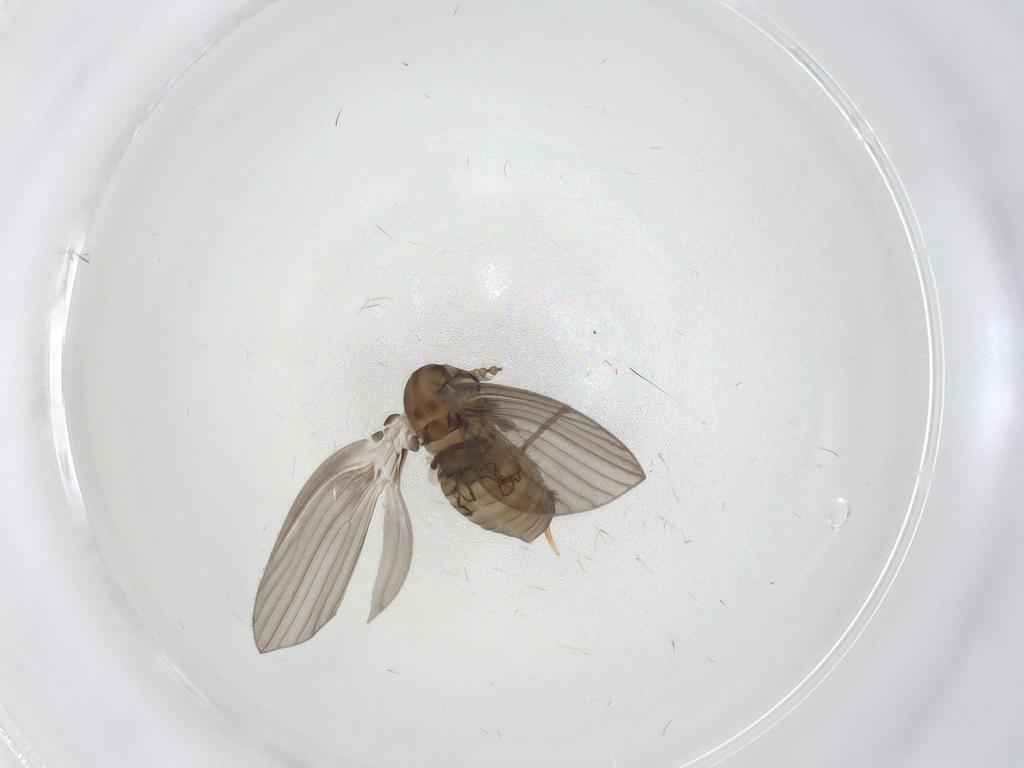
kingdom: Animalia
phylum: Arthropoda
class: Insecta
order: Diptera
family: Psychodidae
